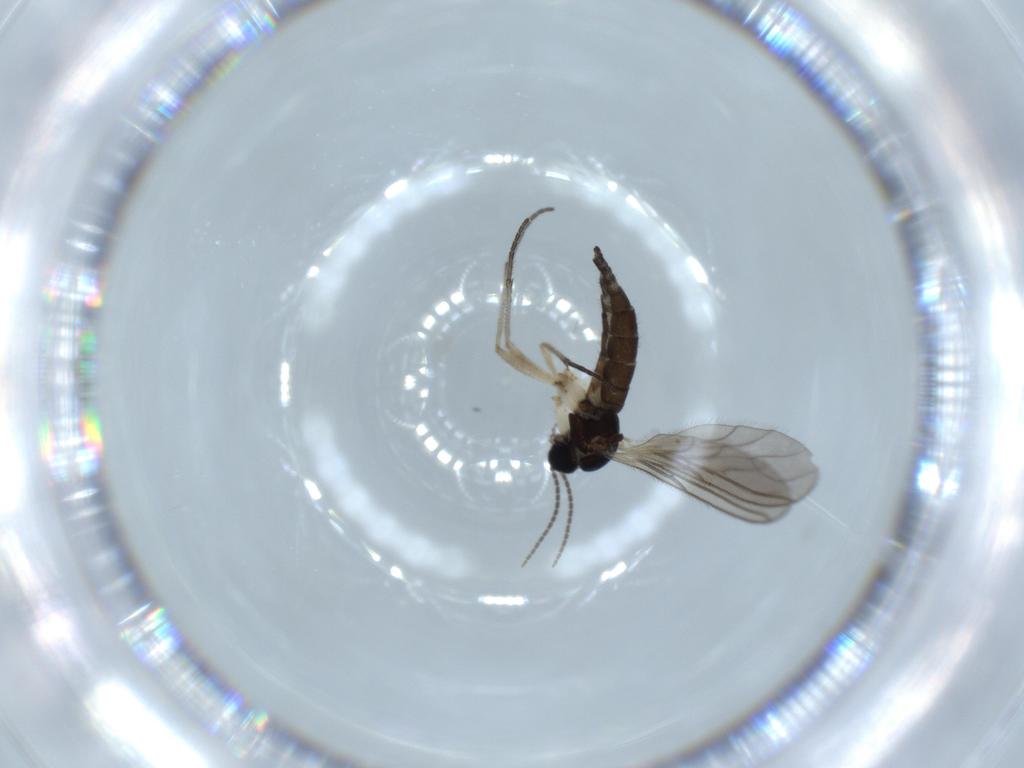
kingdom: Animalia
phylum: Arthropoda
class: Insecta
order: Diptera
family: Sciaridae
